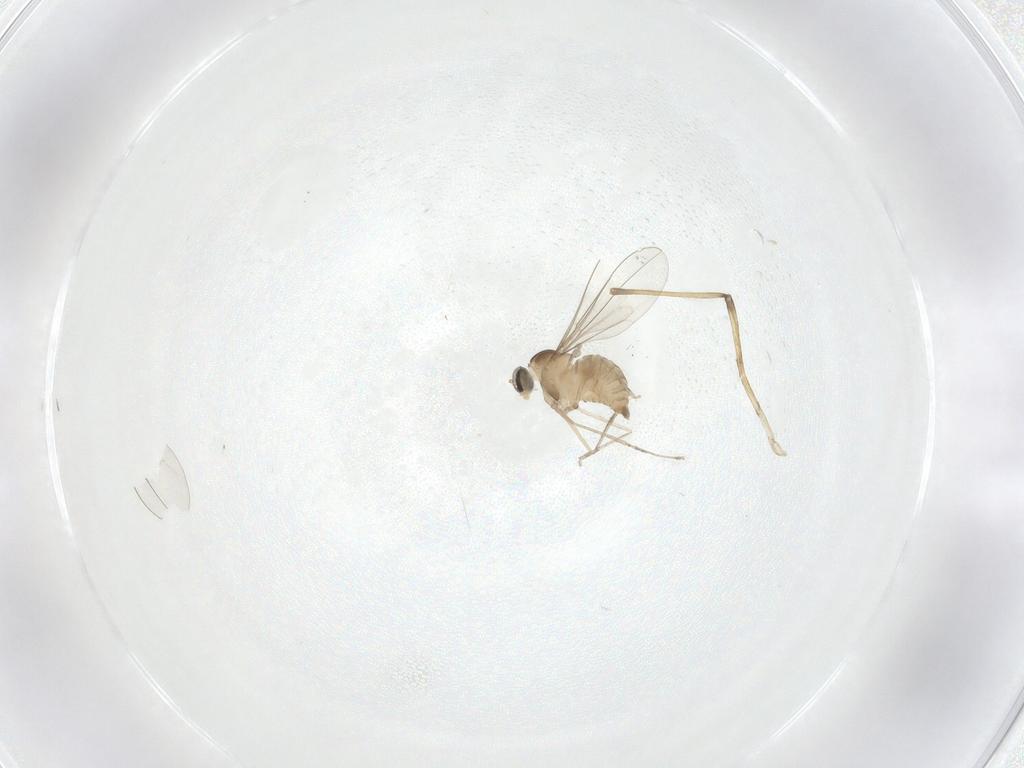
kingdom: Animalia
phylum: Arthropoda
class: Insecta
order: Diptera
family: Cecidomyiidae
